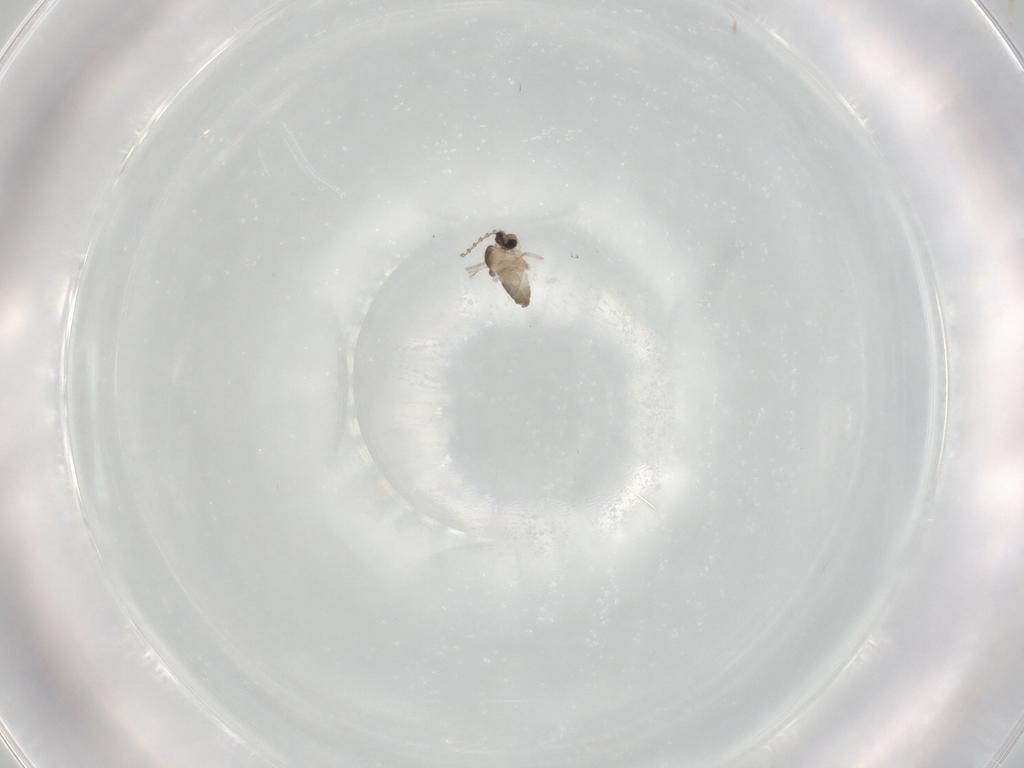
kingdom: Animalia
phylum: Arthropoda
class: Insecta
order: Diptera
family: Cecidomyiidae
